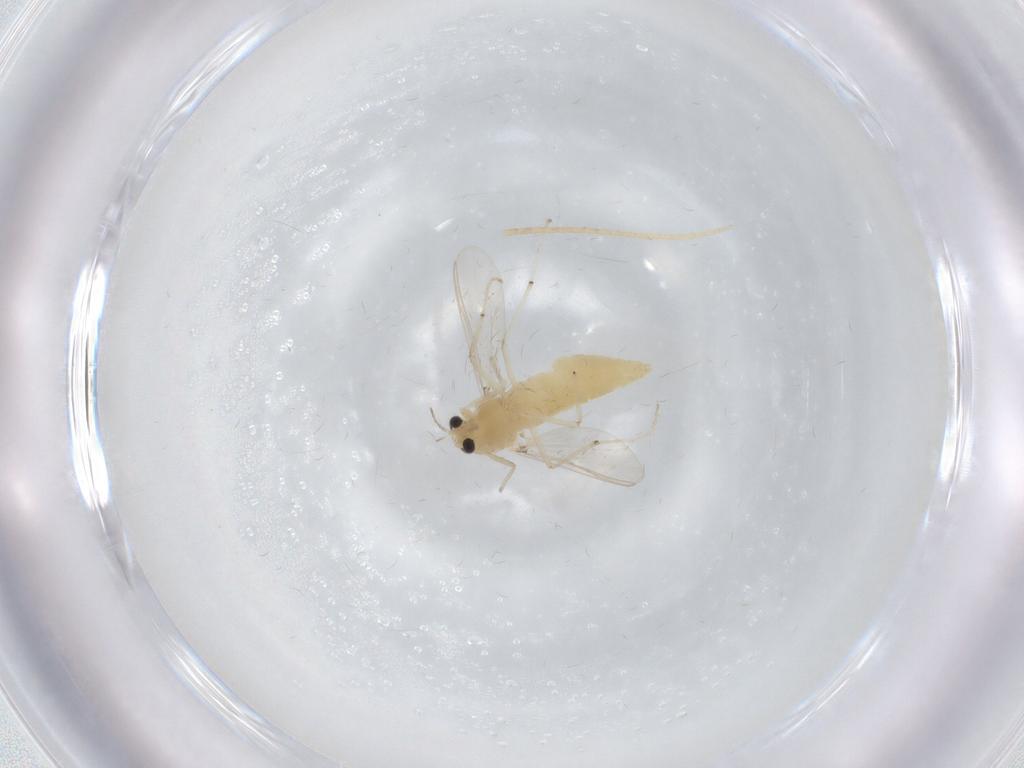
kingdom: Animalia
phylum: Arthropoda
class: Insecta
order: Diptera
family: Chironomidae
